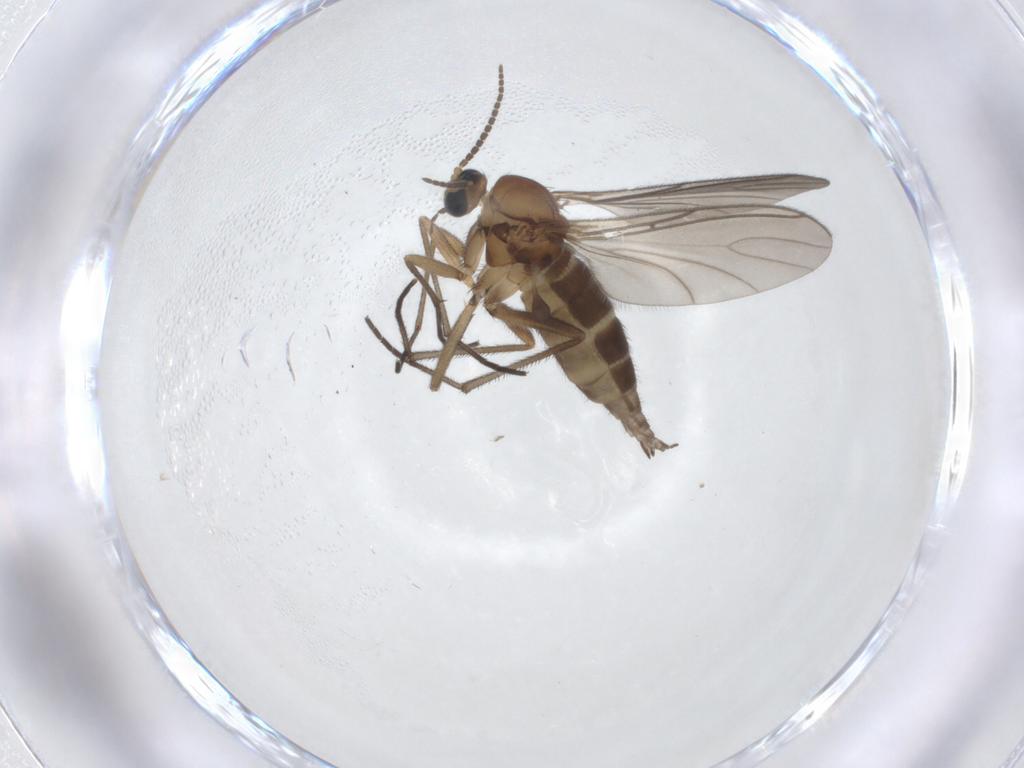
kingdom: Animalia
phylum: Arthropoda
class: Insecta
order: Diptera
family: Sciaridae
